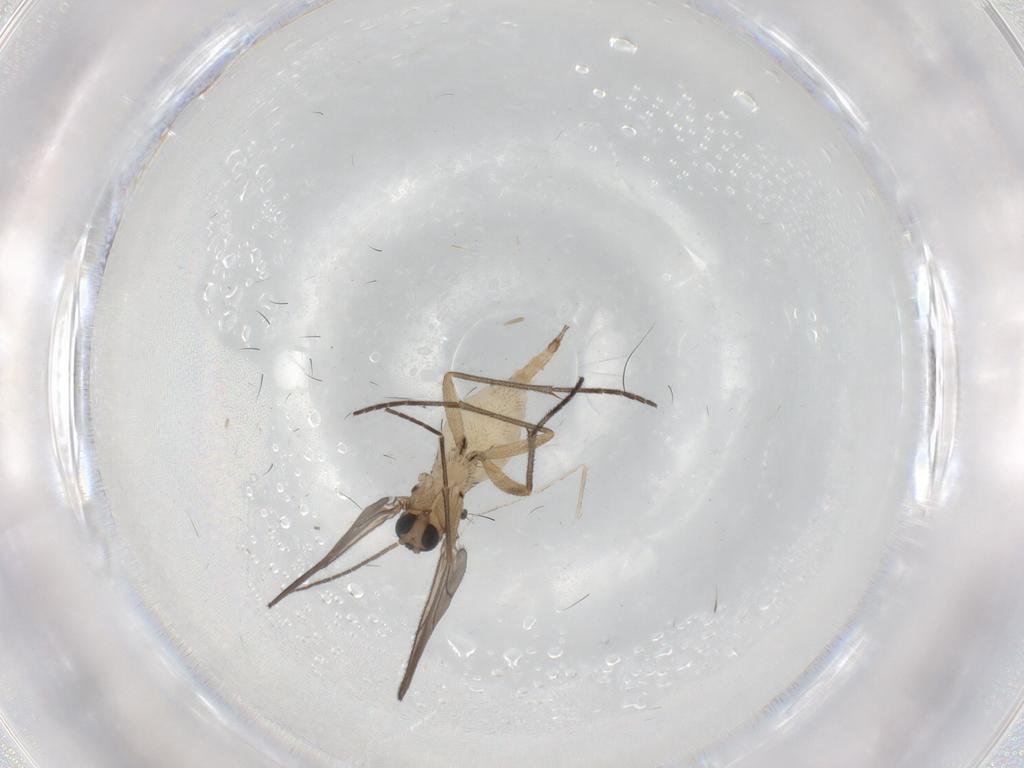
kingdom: Animalia
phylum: Arthropoda
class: Insecta
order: Diptera
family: Sciaridae
